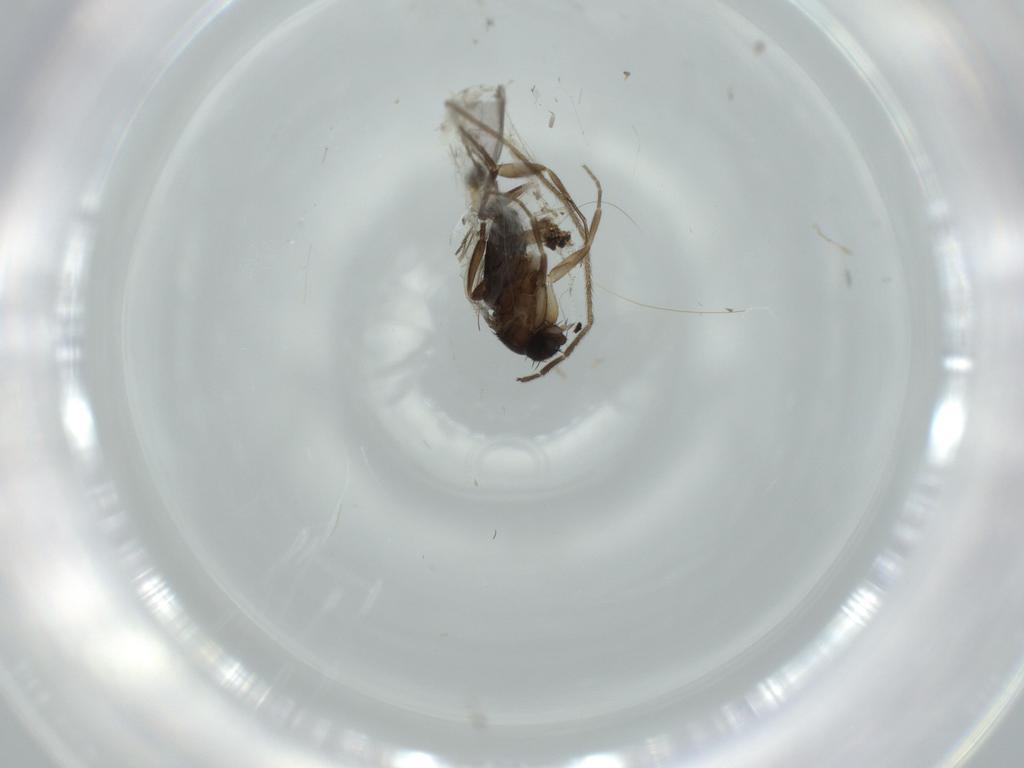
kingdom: Animalia
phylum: Arthropoda
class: Insecta
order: Diptera
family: Phoridae
